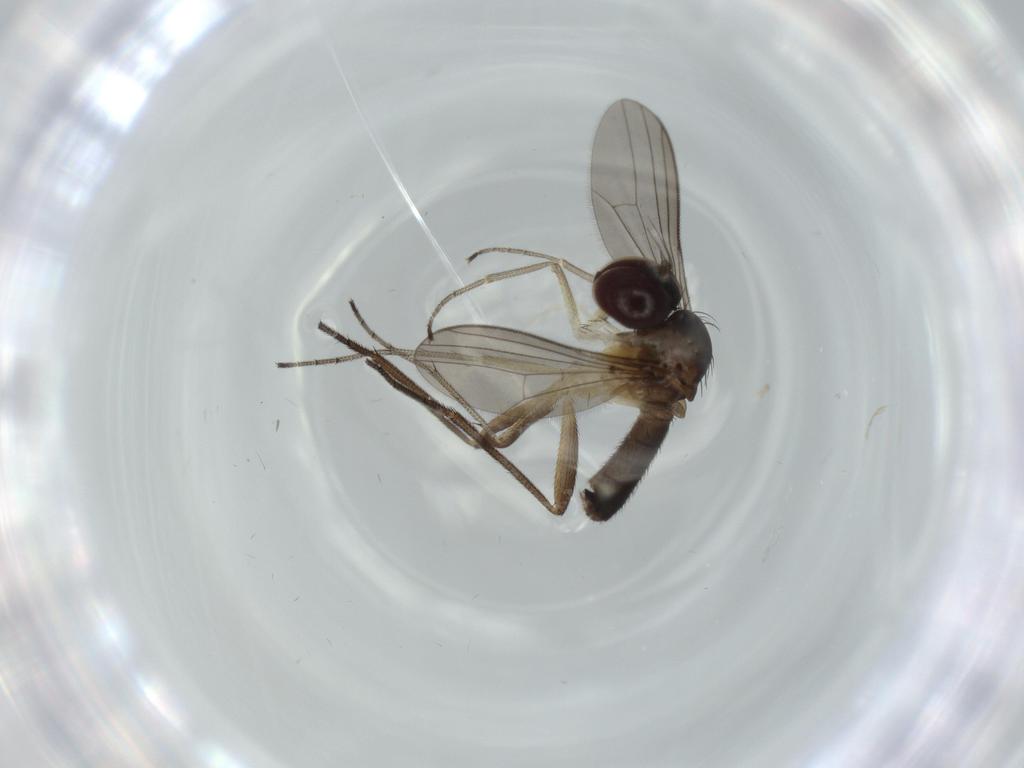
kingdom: Animalia
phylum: Arthropoda
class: Insecta
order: Diptera
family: Dolichopodidae
